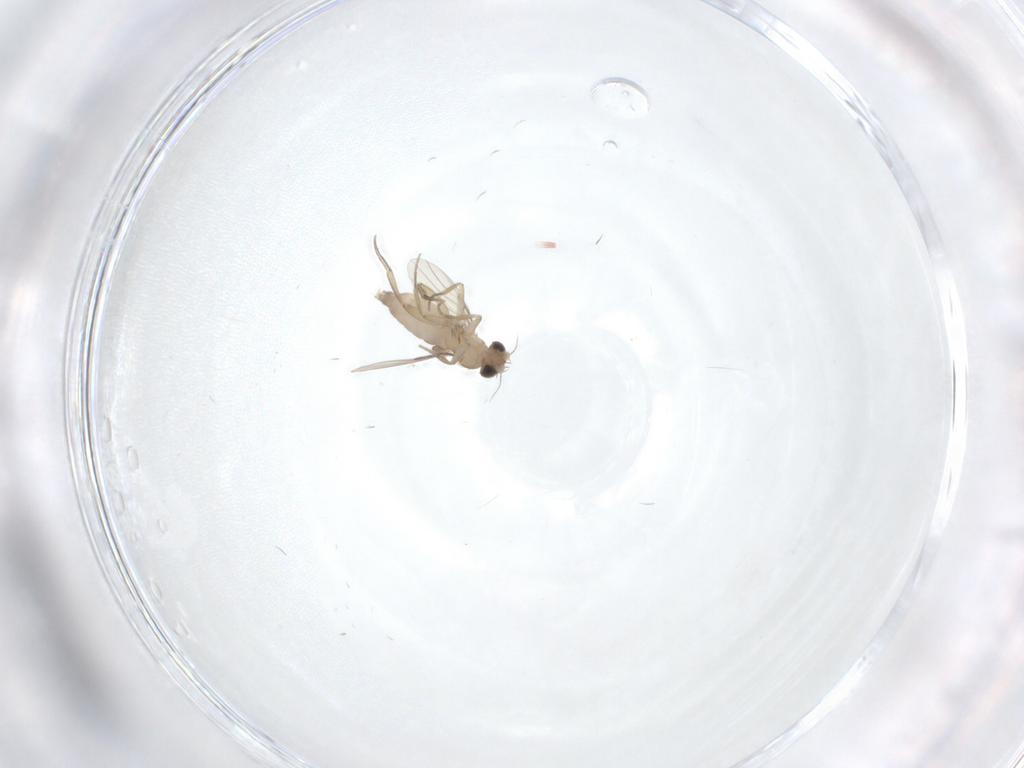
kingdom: Animalia
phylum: Arthropoda
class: Insecta
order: Diptera
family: Phoridae
